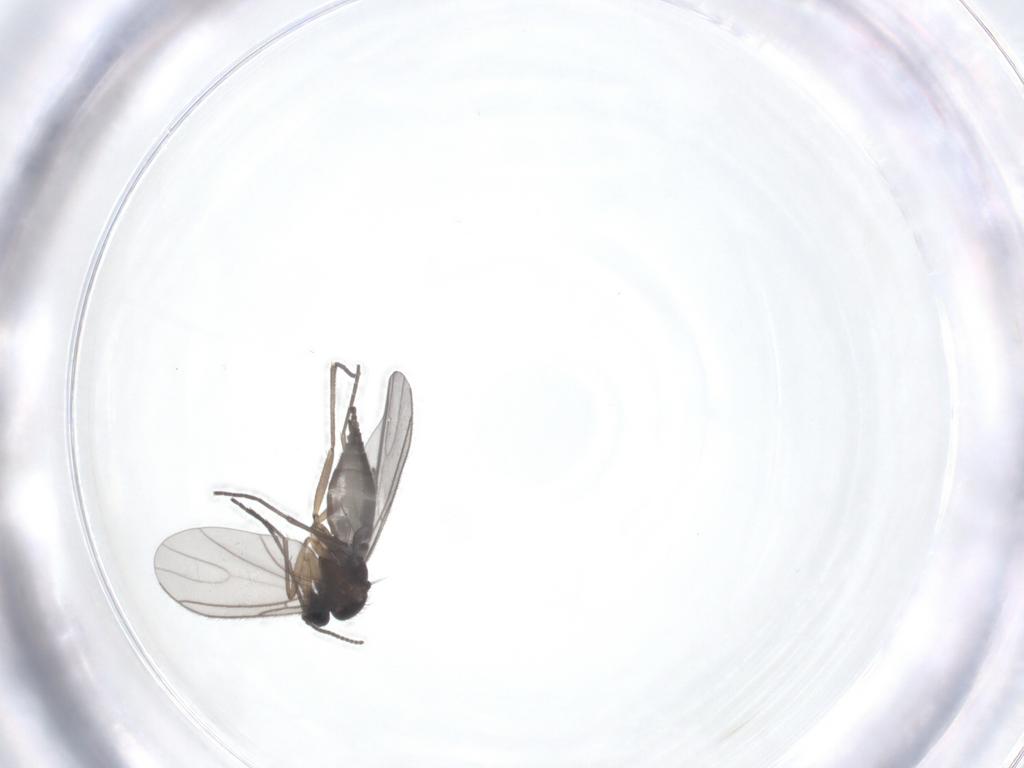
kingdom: Animalia
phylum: Arthropoda
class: Insecta
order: Diptera
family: Sciaridae
